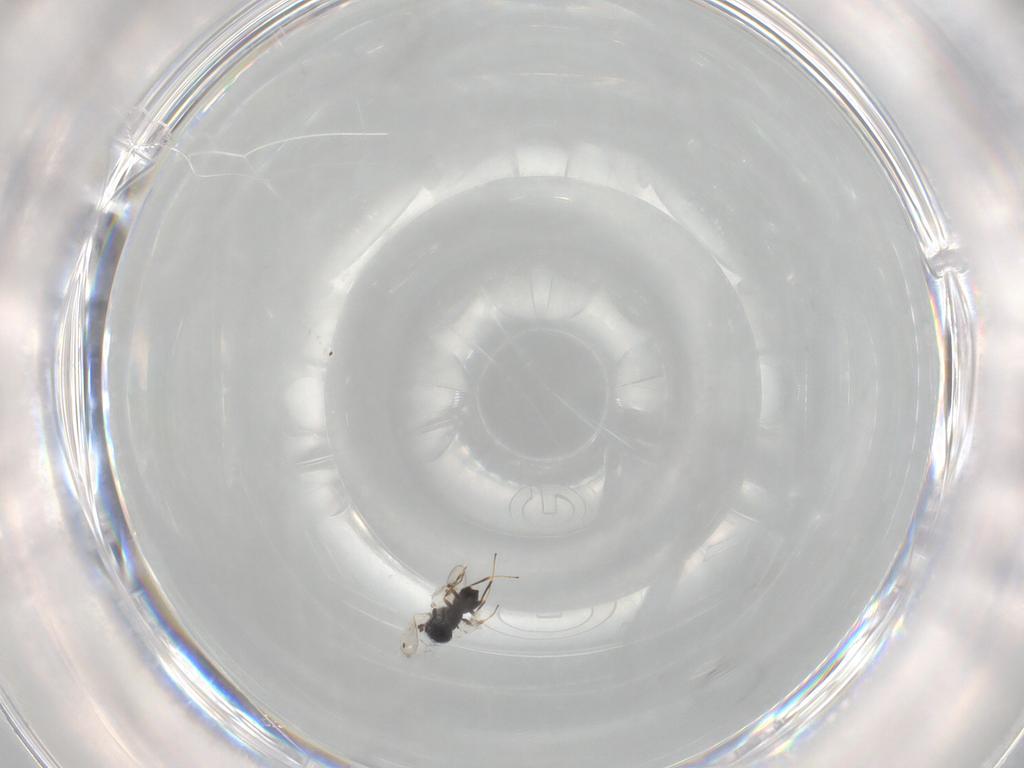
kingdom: Animalia
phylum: Arthropoda
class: Insecta
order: Hymenoptera
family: Scelionidae
